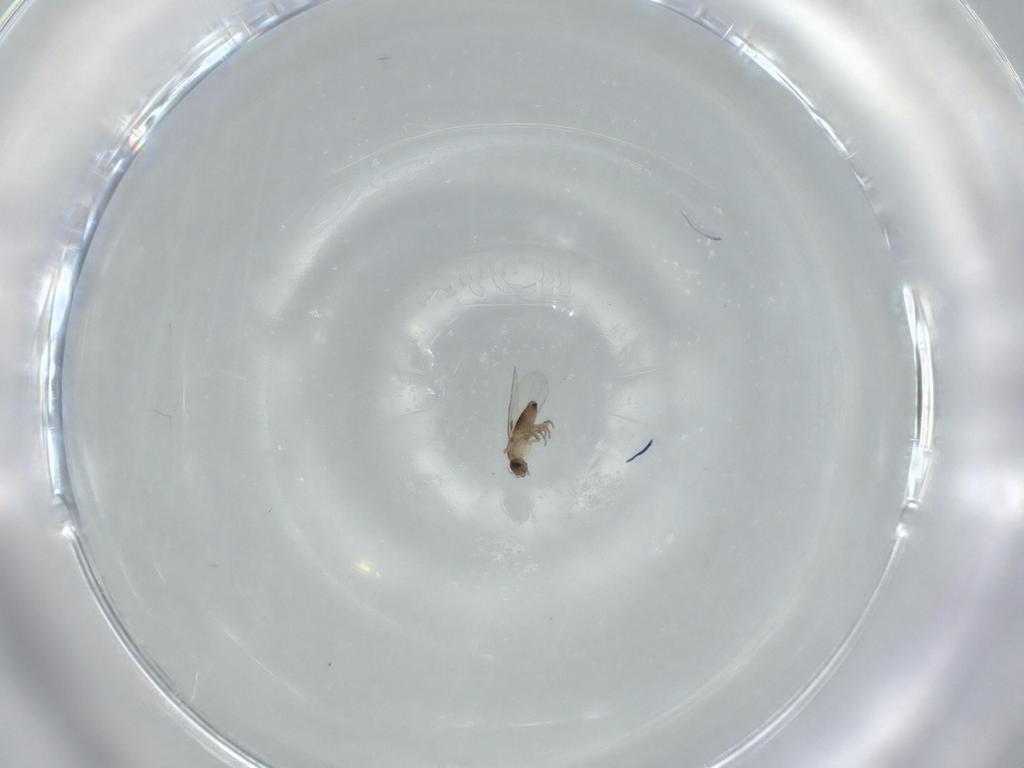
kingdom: Animalia
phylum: Arthropoda
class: Insecta
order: Diptera
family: Phoridae
